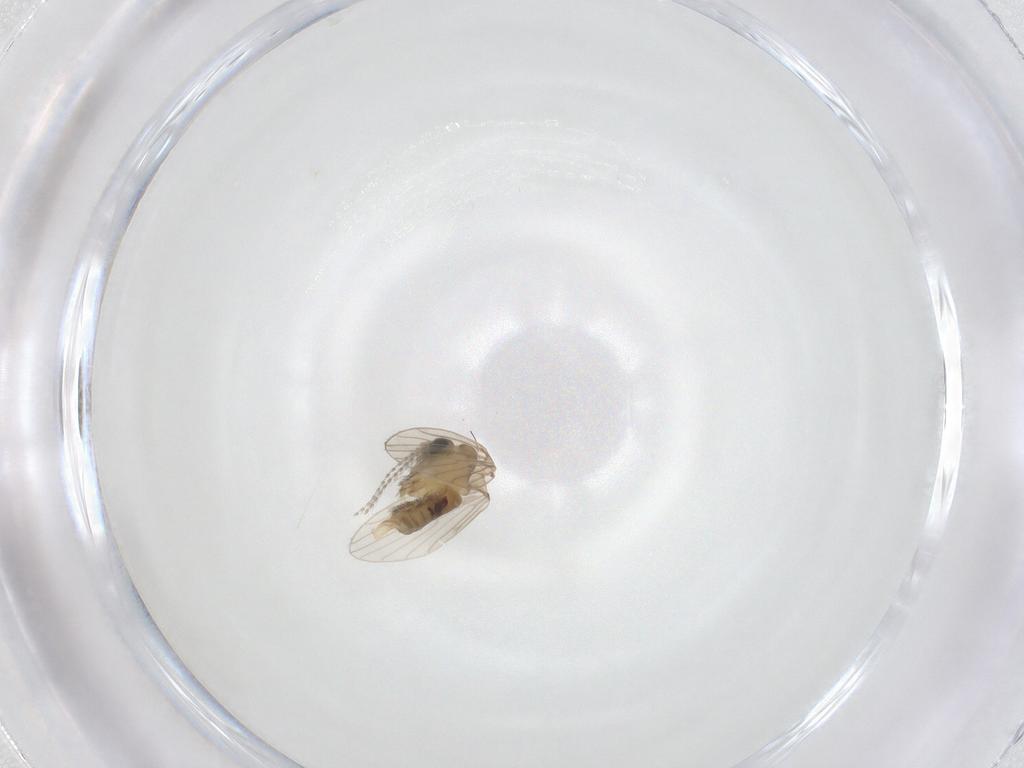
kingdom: Animalia
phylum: Arthropoda
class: Insecta
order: Diptera
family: Psychodidae
